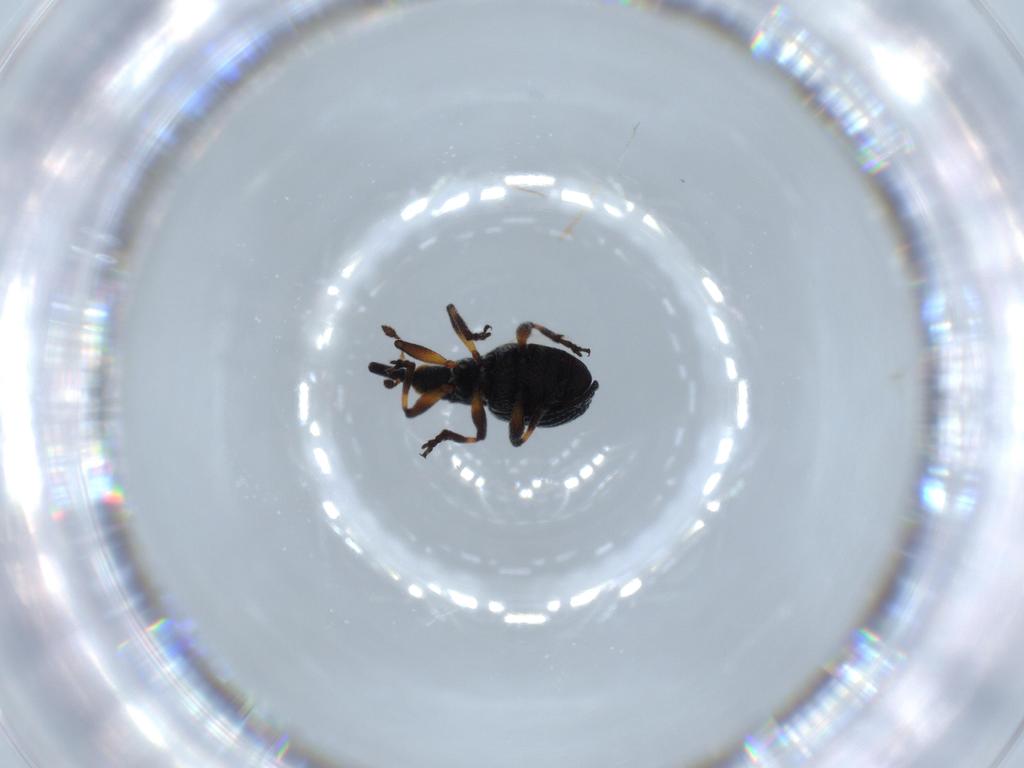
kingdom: Animalia
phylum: Arthropoda
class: Insecta
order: Coleoptera
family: Brentidae
